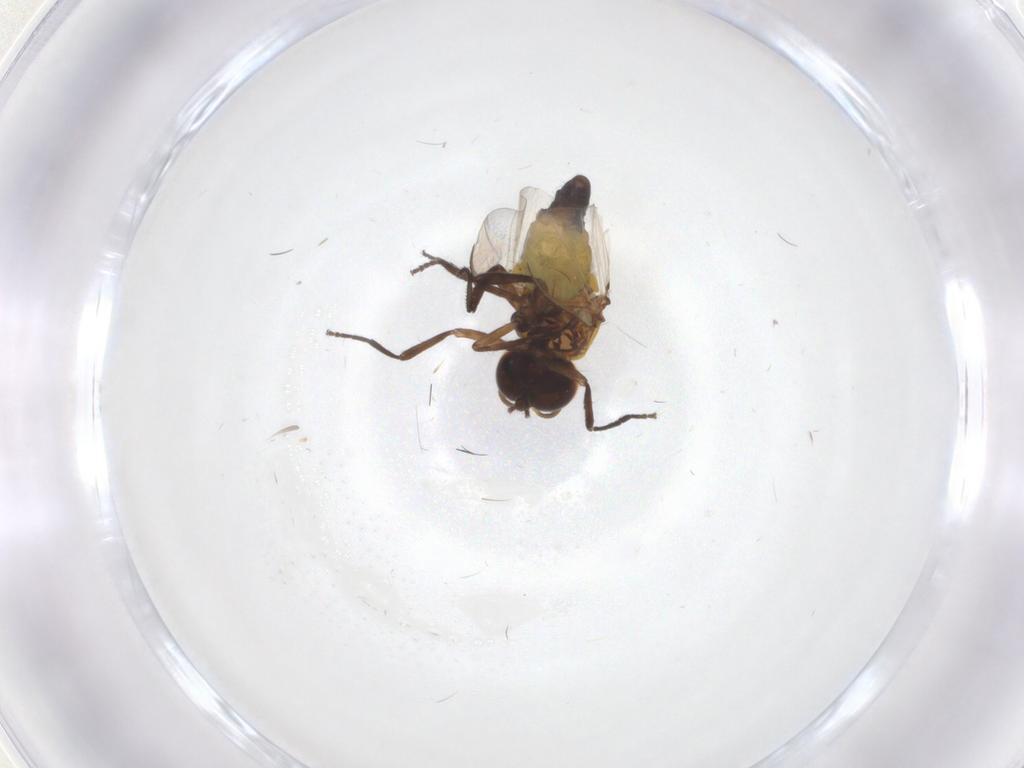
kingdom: Animalia
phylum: Arthropoda
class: Insecta
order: Diptera
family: Simuliidae
